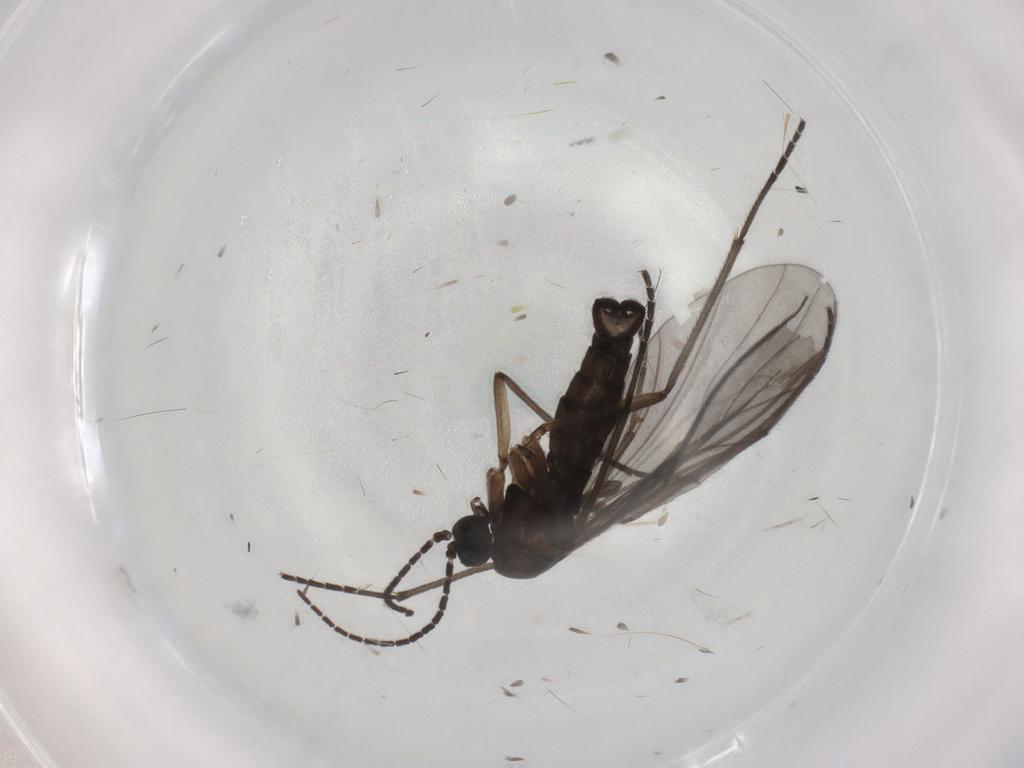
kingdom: Animalia
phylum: Arthropoda
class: Insecta
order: Diptera
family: Sciaridae
